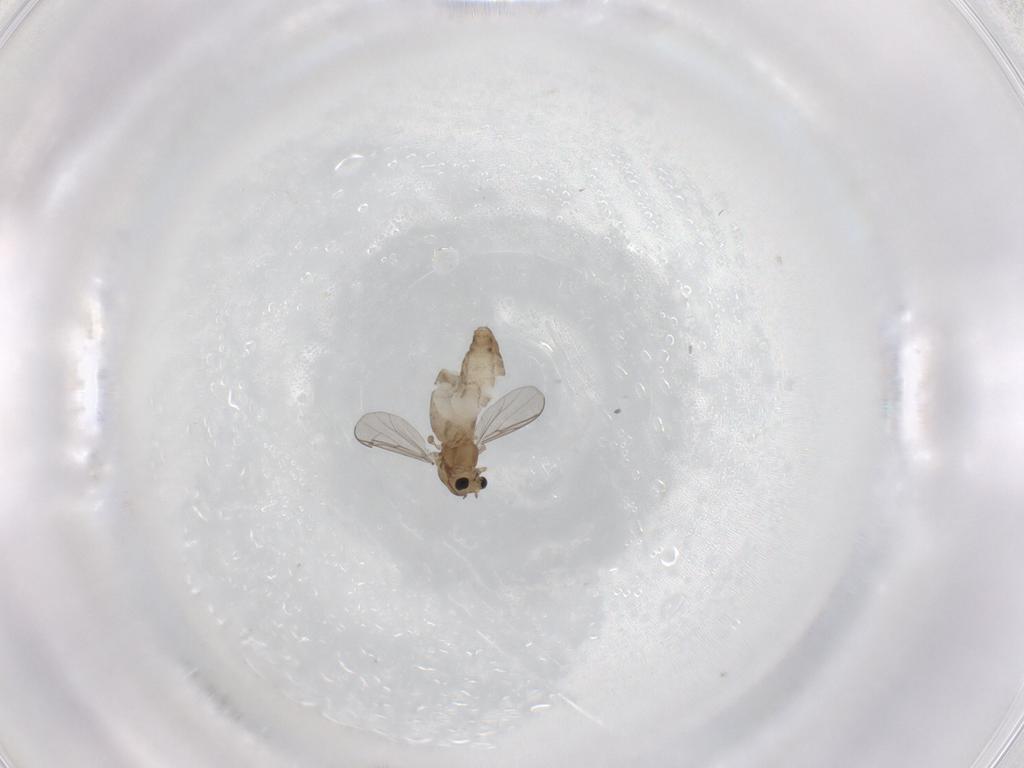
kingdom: Animalia
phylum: Arthropoda
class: Insecta
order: Diptera
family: Chironomidae
